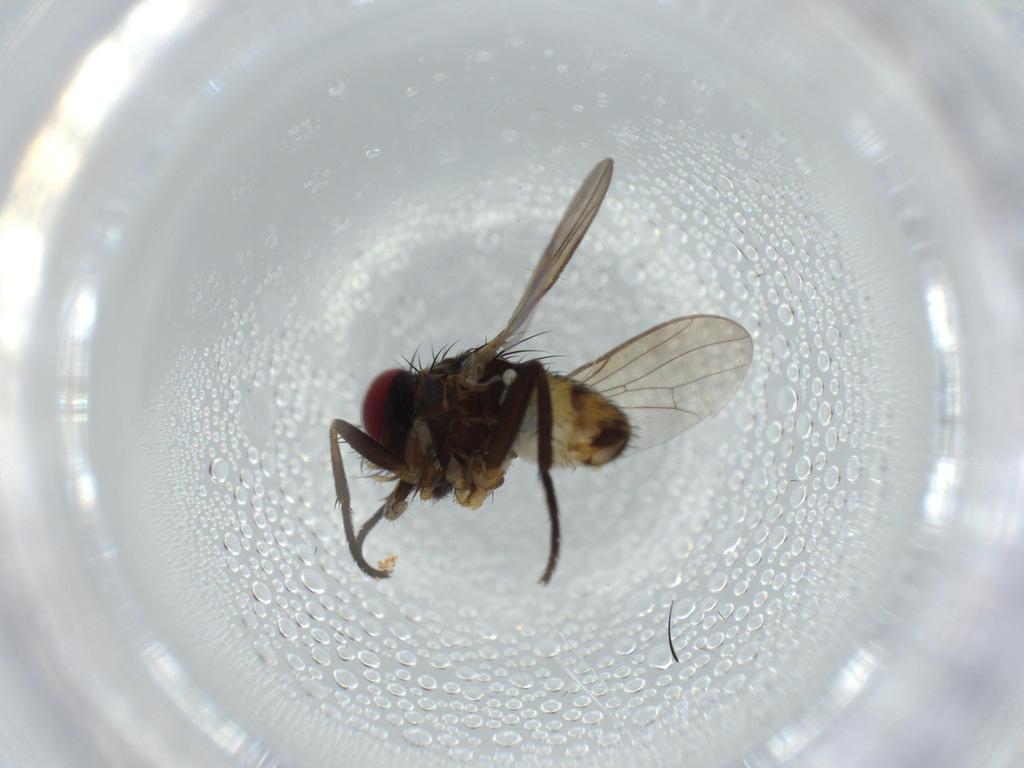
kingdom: Animalia
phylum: Arthropoda
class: Insecta
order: Diptera
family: Anthomyiidae
